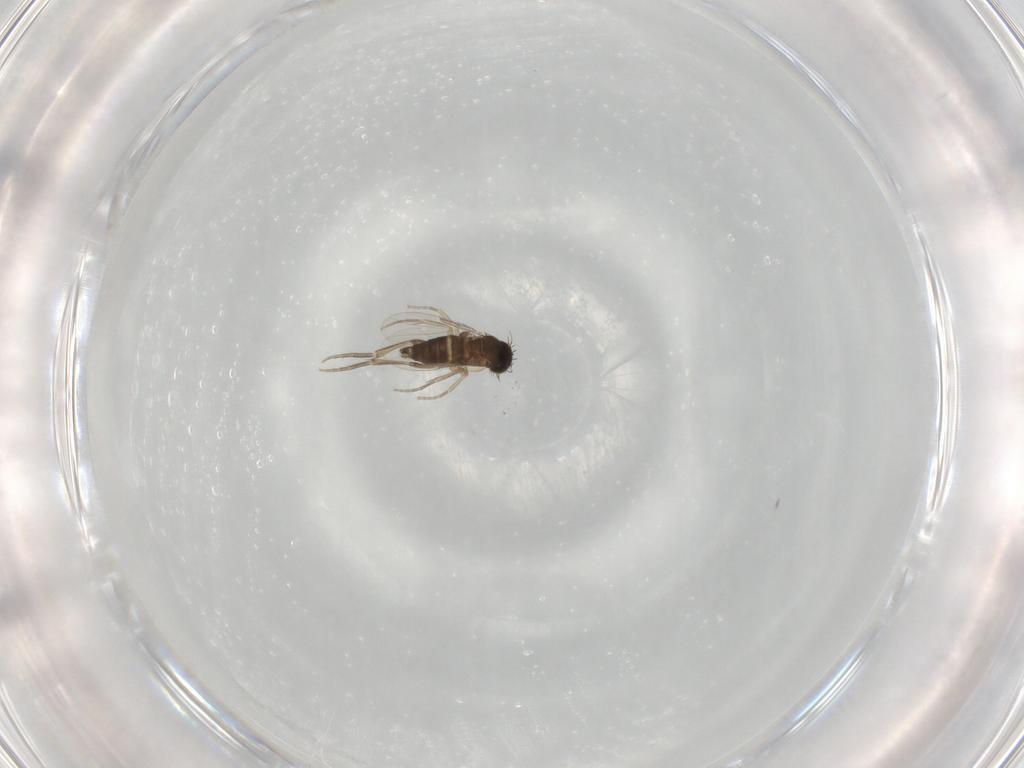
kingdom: Animalia
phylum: Arthropoda
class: Insecta
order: Diptera
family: Phoridae
